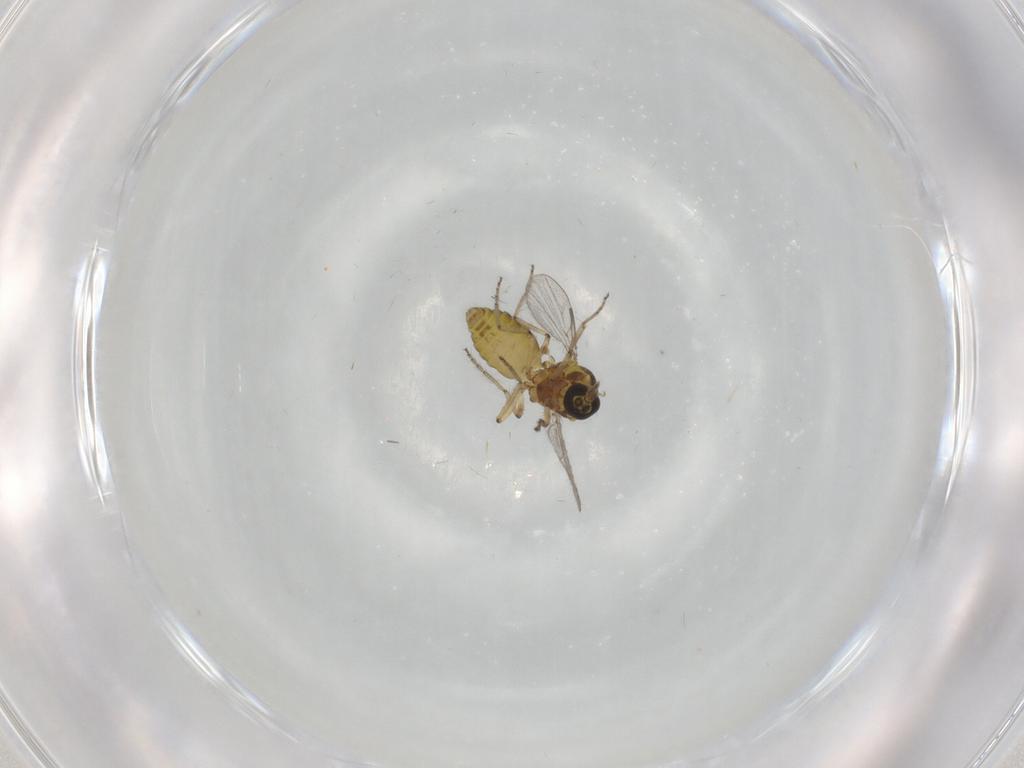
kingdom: Animalia
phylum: Arthropoda
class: Insecta
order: Diptera
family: Ceratopogonidae
